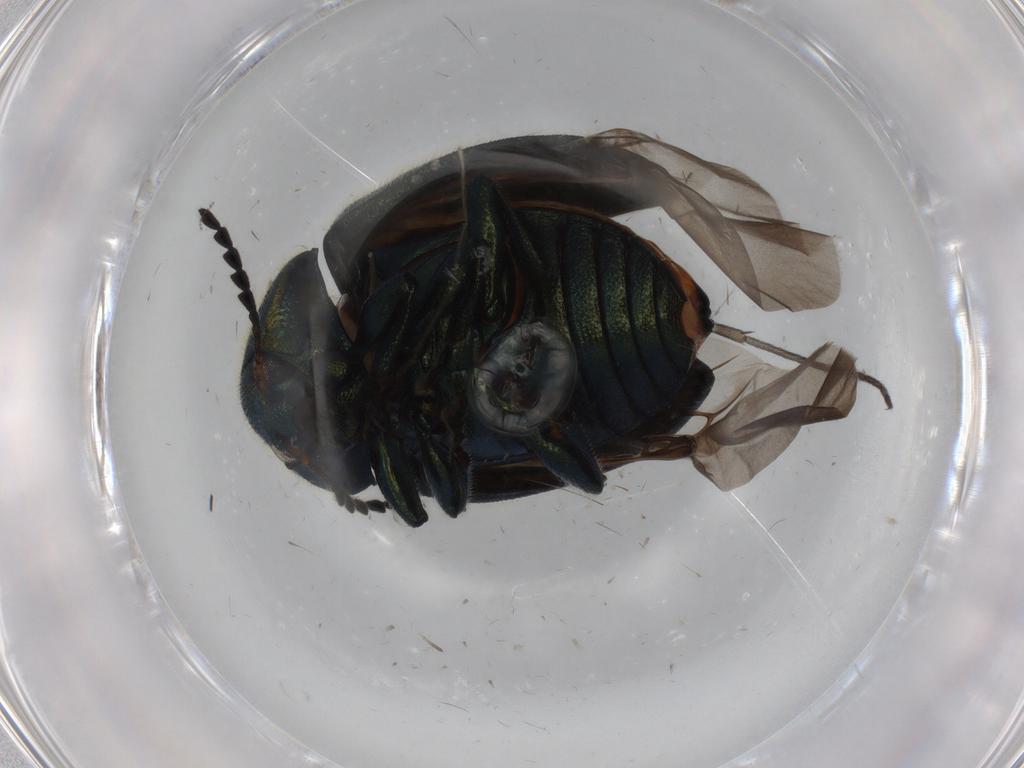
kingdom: Animalia
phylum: Arthropoda
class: Insecta
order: Coleoptera
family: Chrysomelidae
